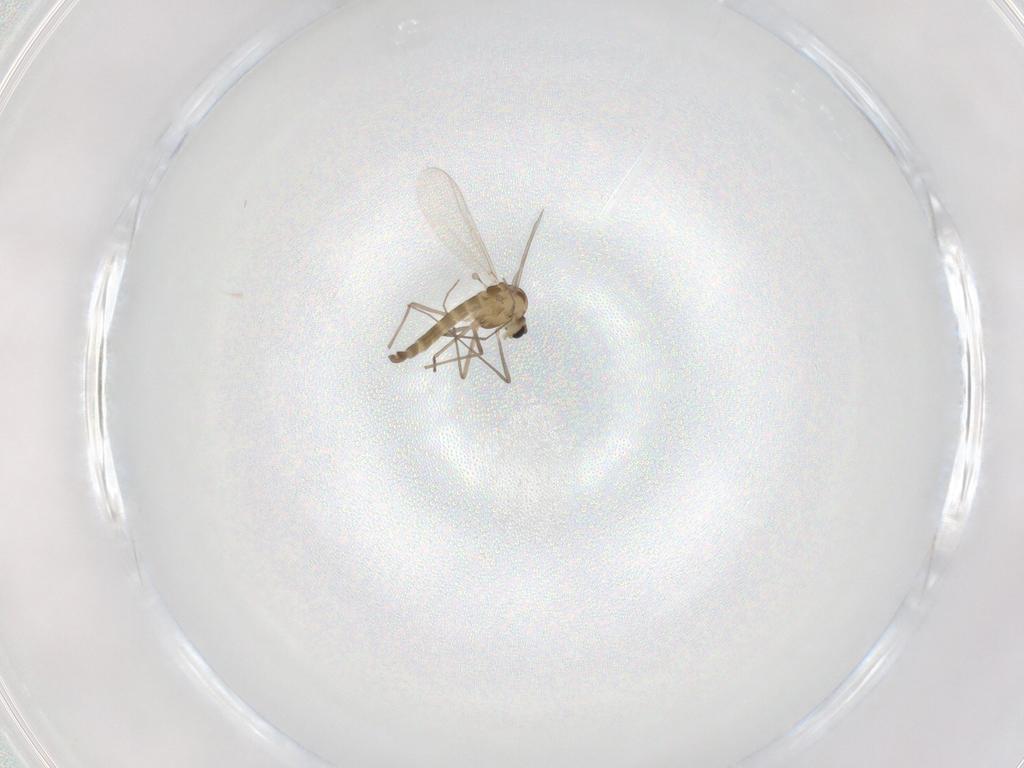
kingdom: Animalia
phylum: Arthropoda
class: Insecta
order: Diptera
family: Chironomidae
